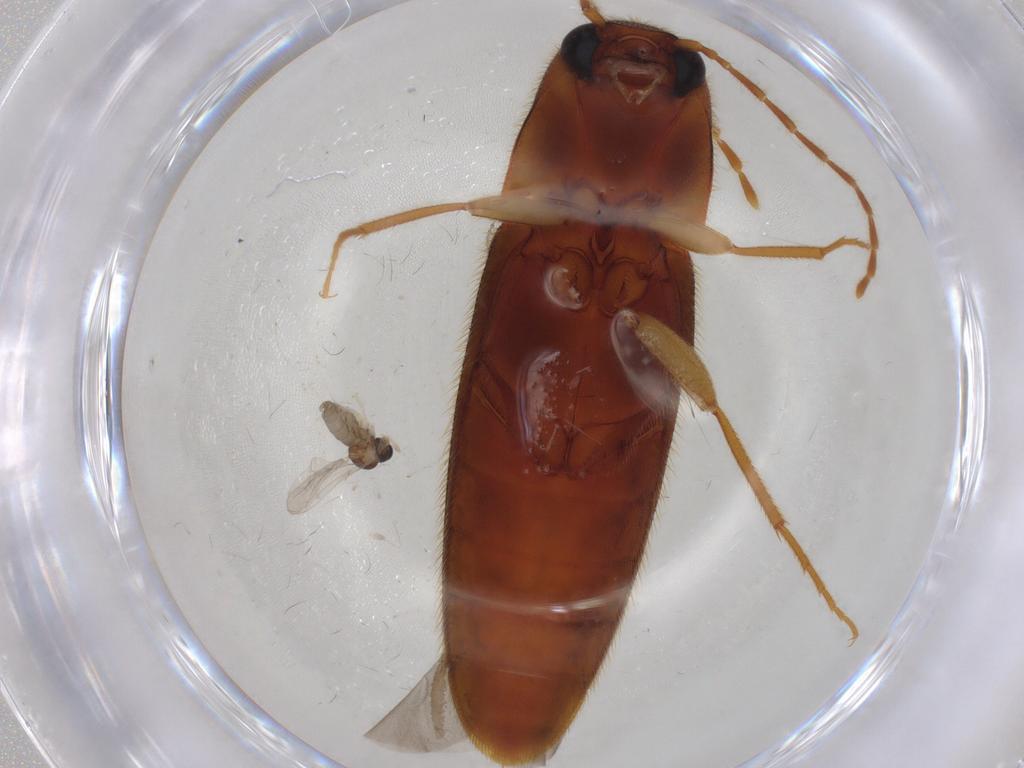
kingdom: Animalia
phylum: Arthropoda
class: Insecta
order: Diptera
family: Cecidomyiidae
